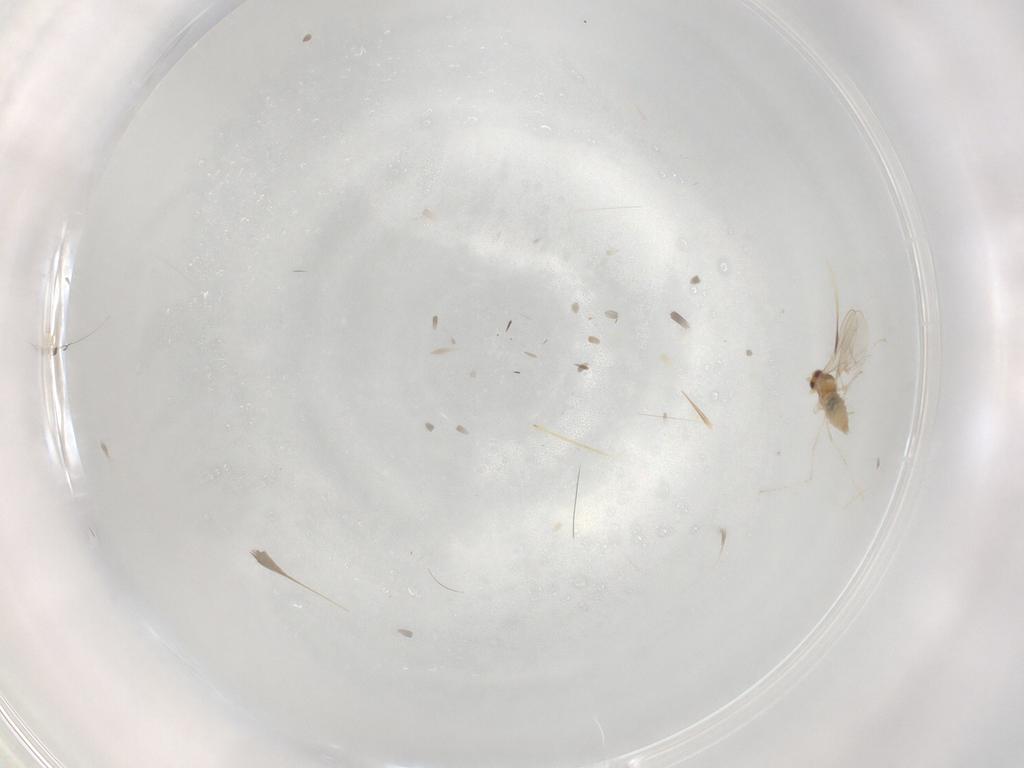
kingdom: Animalia
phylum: Arthropoda
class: Insecta
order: Diptera
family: Cecidomyiidae
